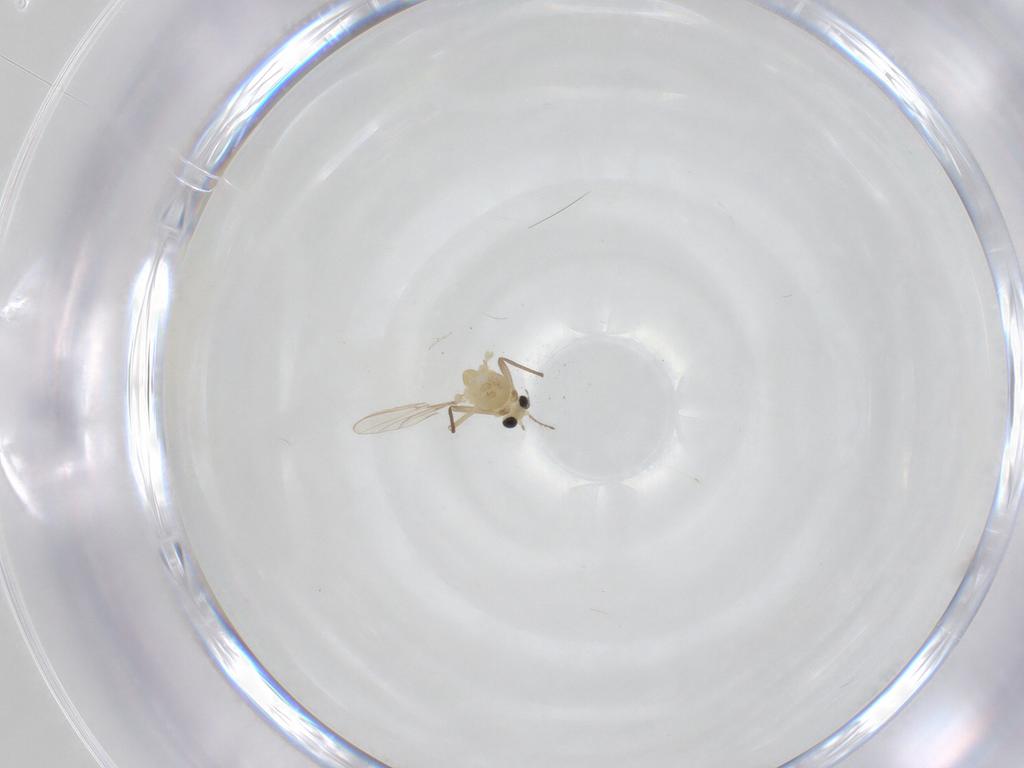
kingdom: Animalia
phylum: Arthropoda
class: Insecta
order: Diptera
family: Chironomidae
